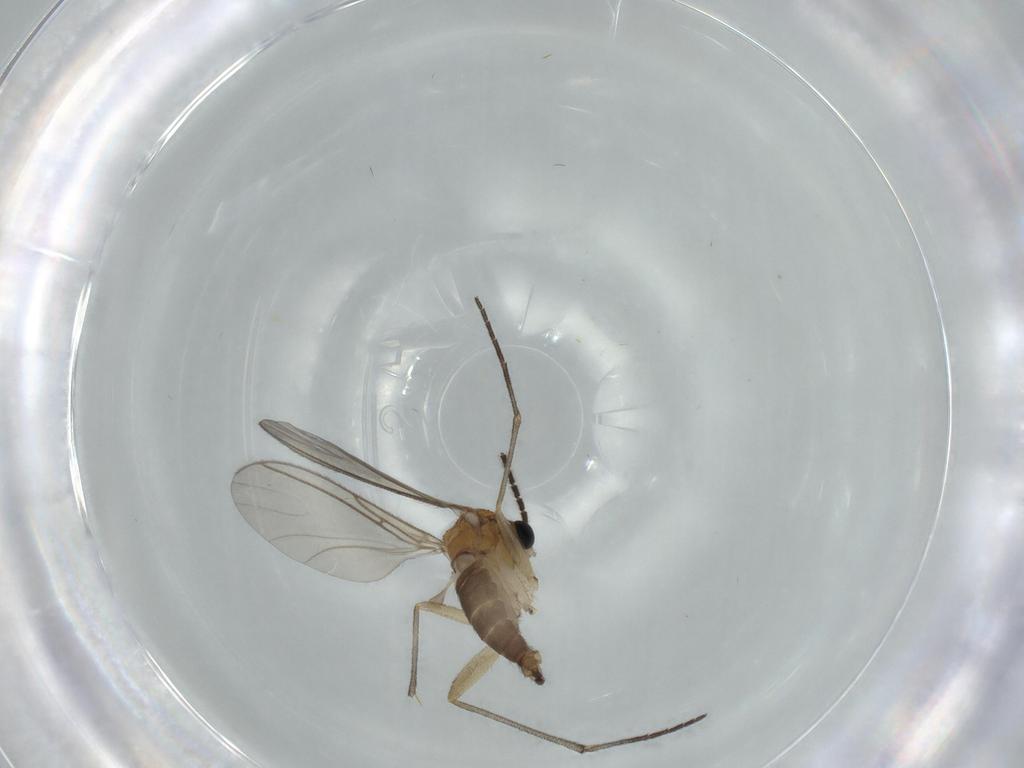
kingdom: Animalia
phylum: Arthropoda
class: Insecta
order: Diptera
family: Sciaridae
